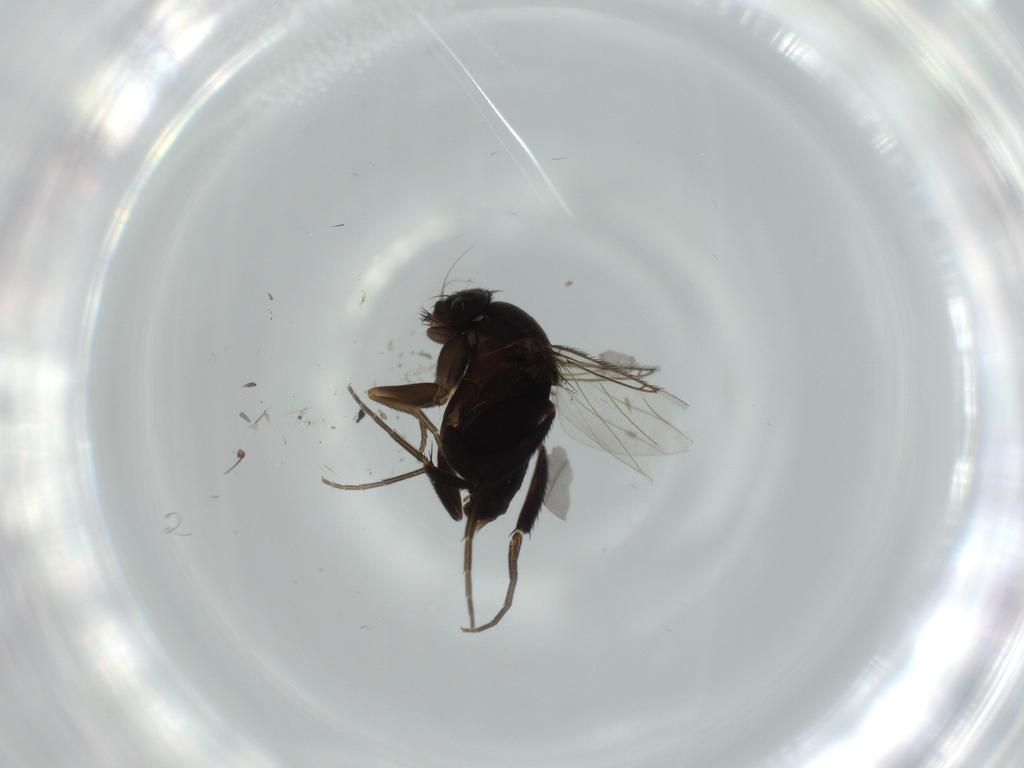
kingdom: Animalia
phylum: Arthropoda
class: Insecta
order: Diptera
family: Phoridae
